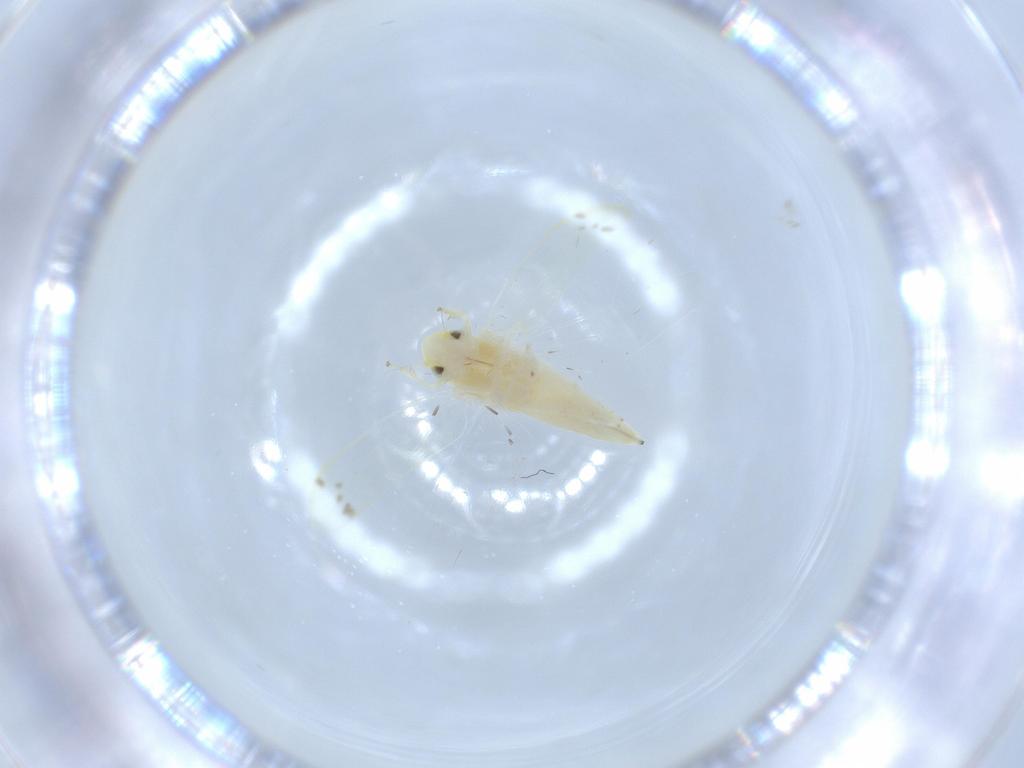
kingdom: Animalia
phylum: Arthropoda
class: Insecta
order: Hemiptera
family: Cicadellidae
